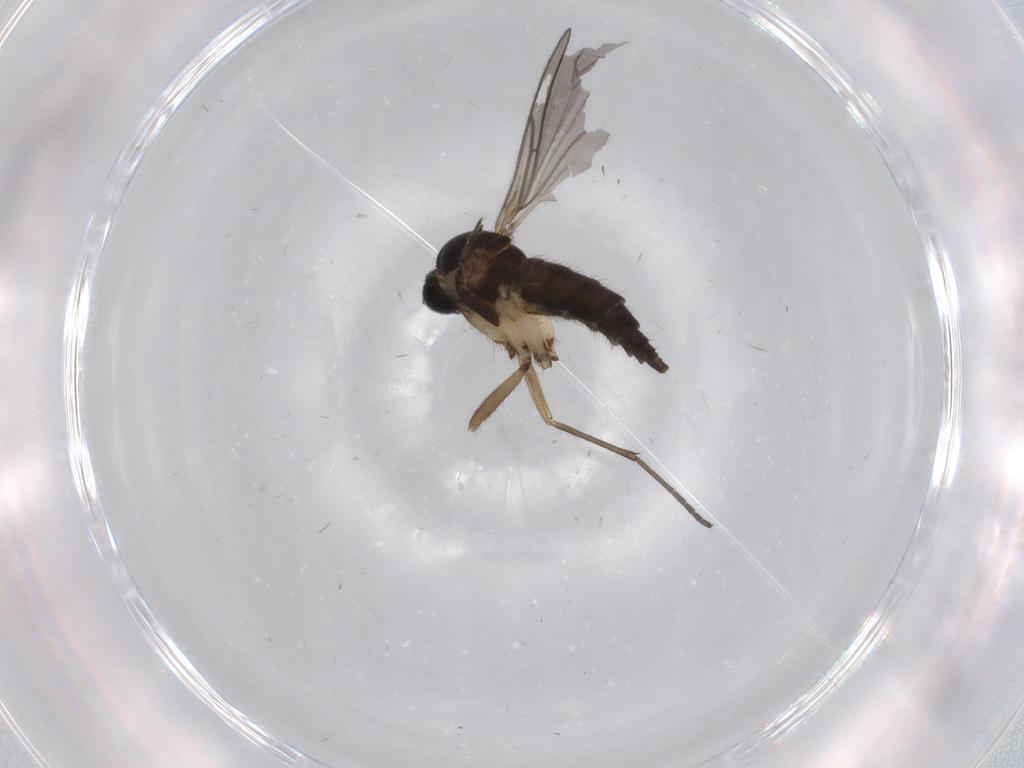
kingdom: Animalia
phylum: Arthropoda
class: Insecta
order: Diptera
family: Sciaridae
